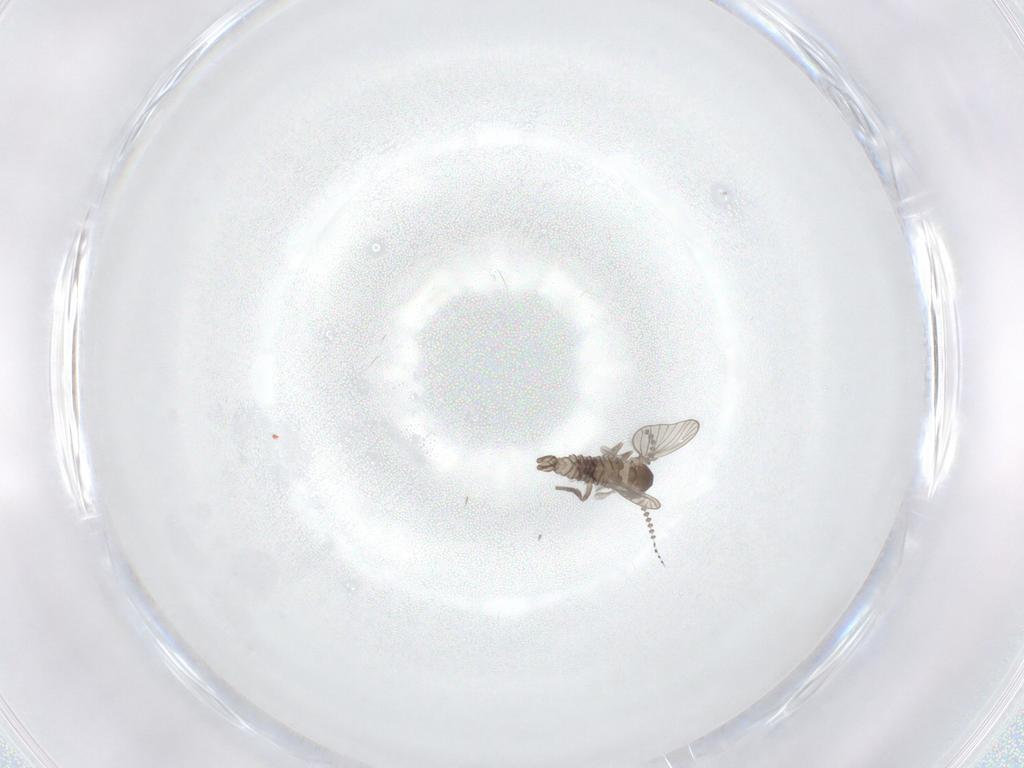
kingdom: Animalia
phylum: Arthropoda
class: Insecta
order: Diptera
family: Psychodidae
